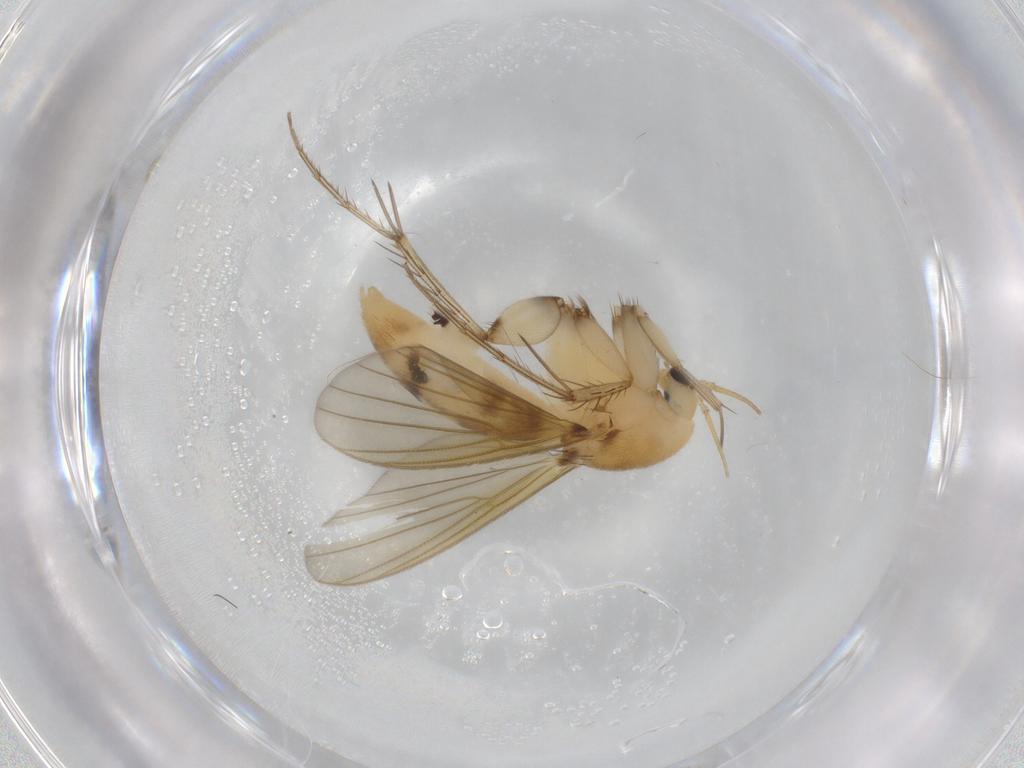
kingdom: Animalia
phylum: Arthropoda
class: Insecta
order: Diptera
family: Mycetophilidae
